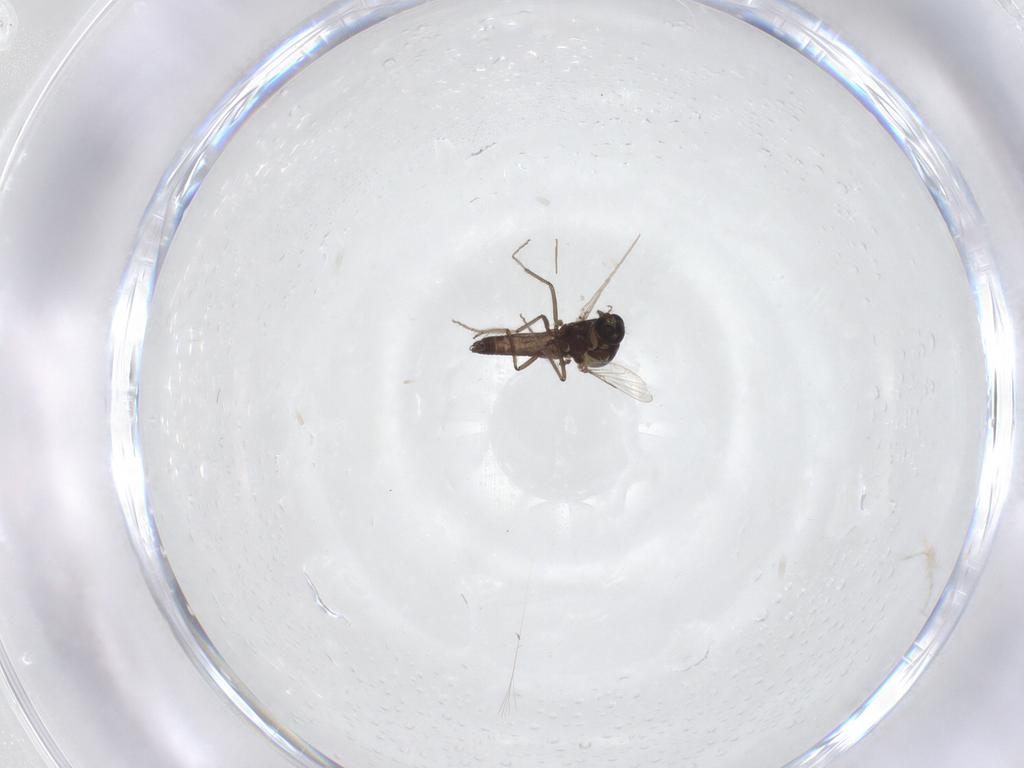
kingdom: Animalia
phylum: Arthropoda
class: Insecta
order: Diptera
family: Ceratopogonidae
